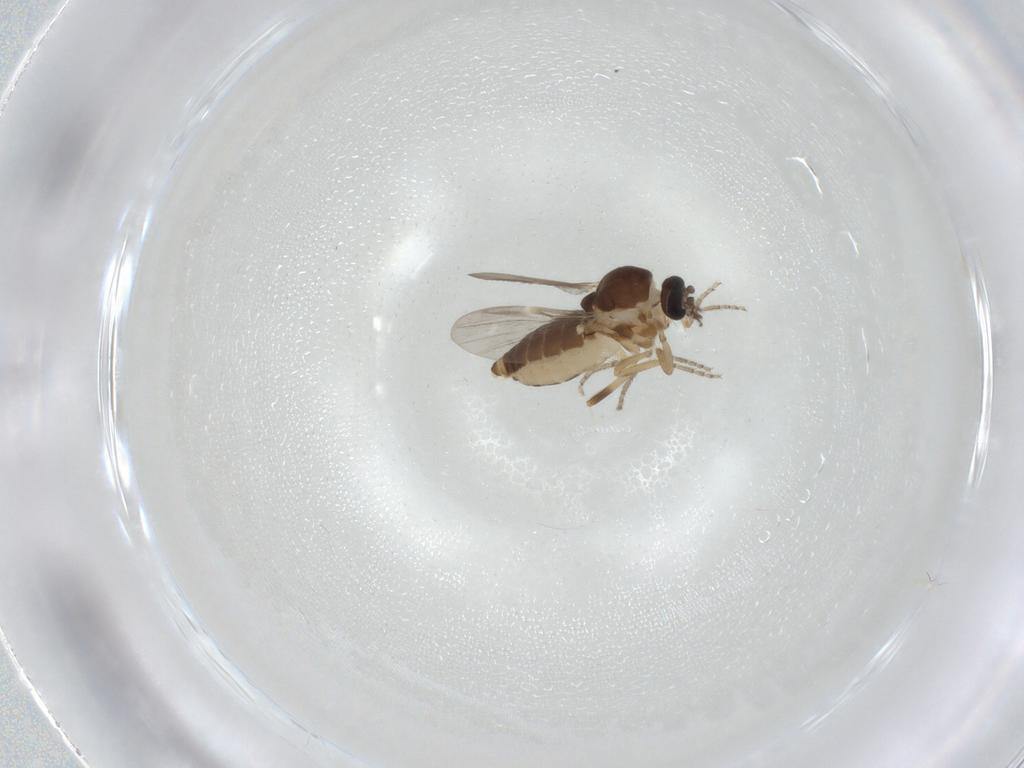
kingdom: Animalia
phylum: Arthropoda
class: Insecta
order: Diptera
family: Ceratopogonidae
